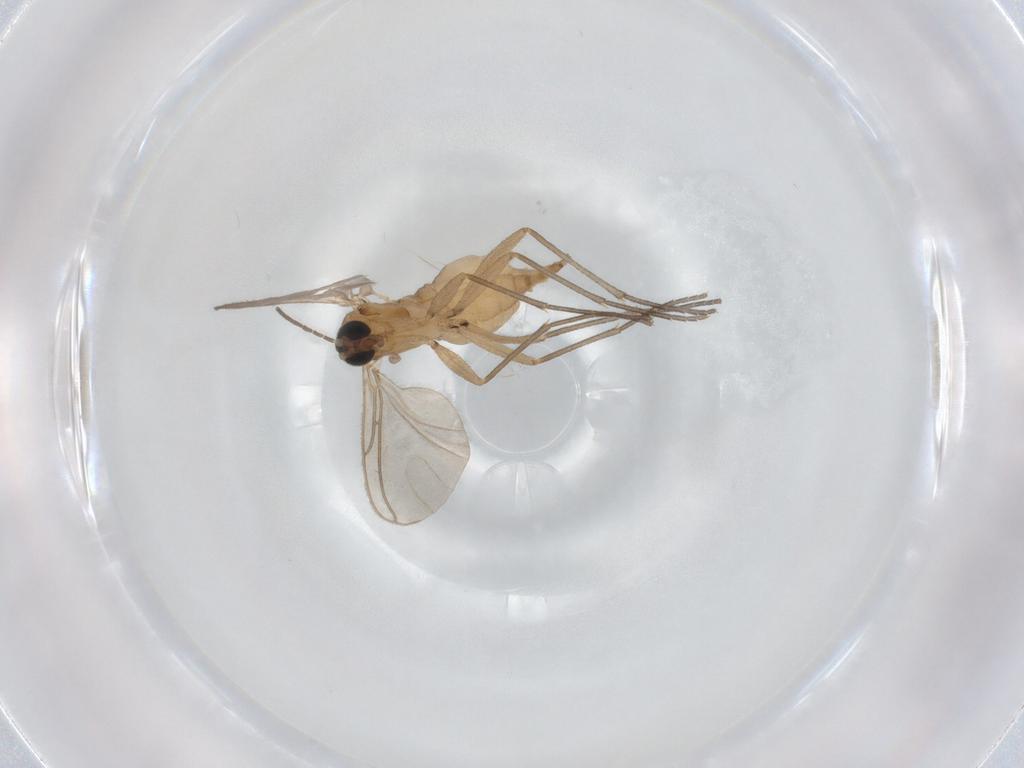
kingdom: Animalia
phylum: Arthropoda
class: Insecta
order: Diptera
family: Sciaridae
